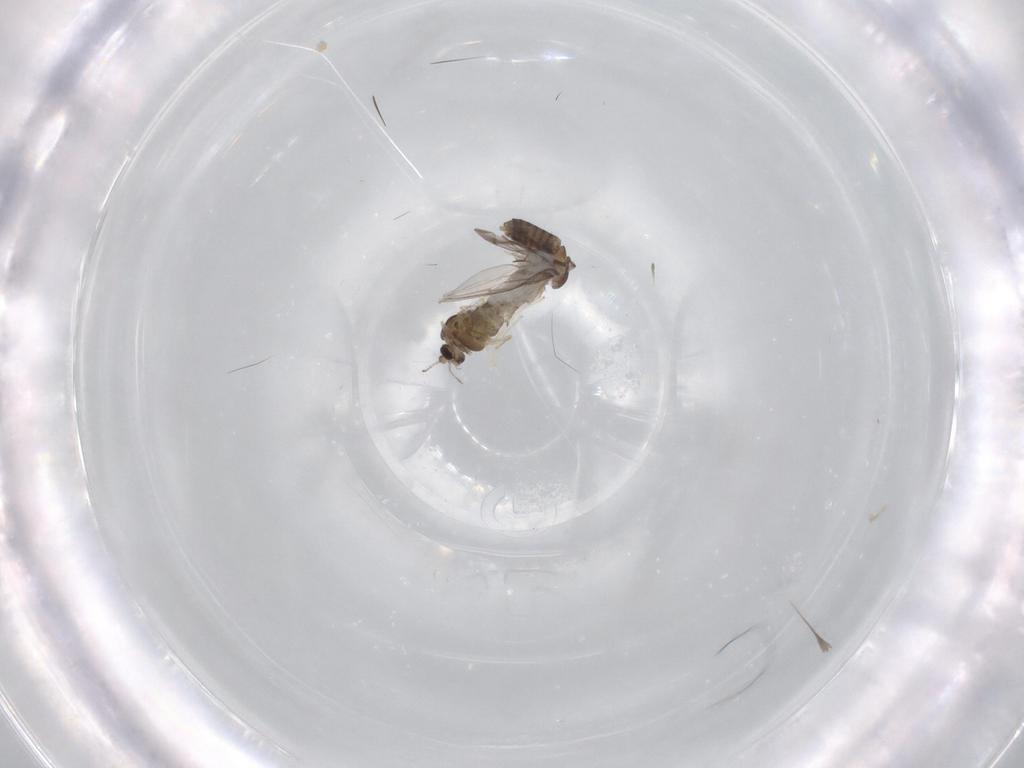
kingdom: Animalia
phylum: Arthropoda
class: Insecta
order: Diptera
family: Chironomidae
